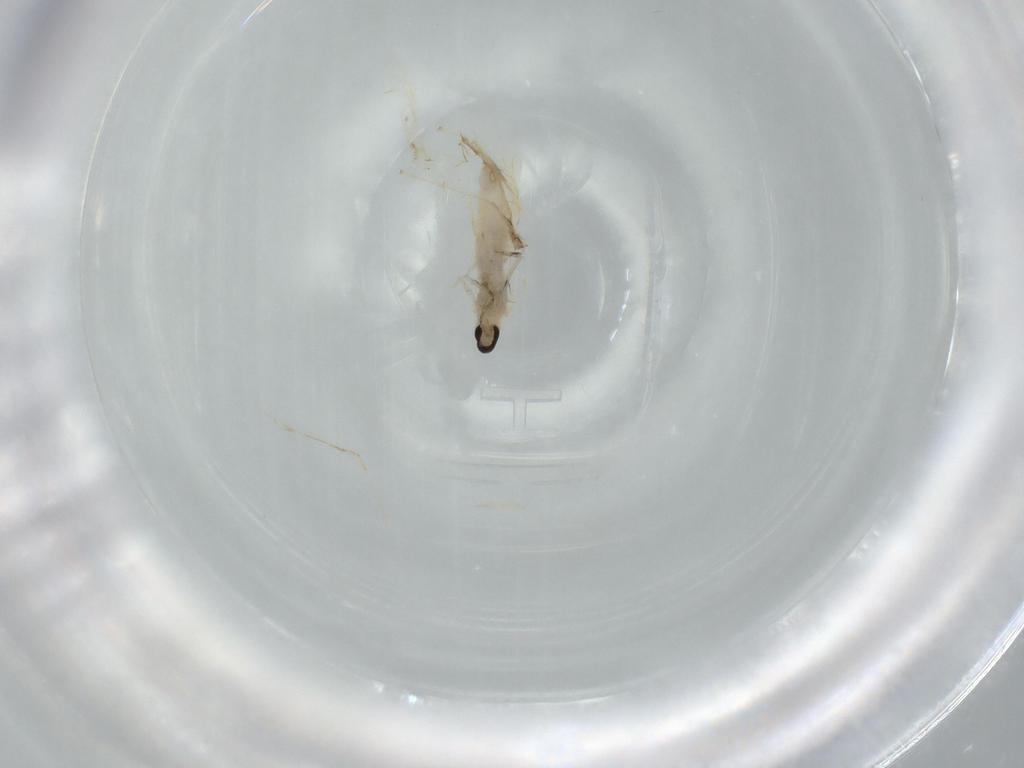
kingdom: Animalia
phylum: Arthropoda
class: Insecta
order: Diptera
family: Cecidomyiidae
